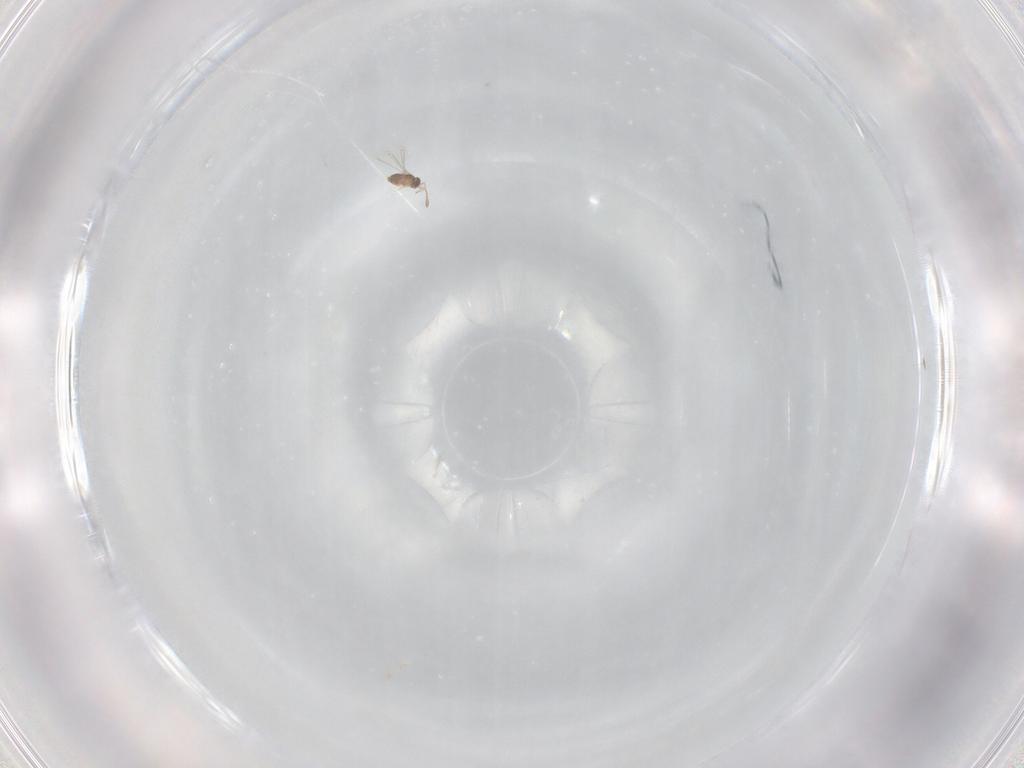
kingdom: Animalia
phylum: Arthropoda
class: Insecta
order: Hymenoptera
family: Mymaridae
